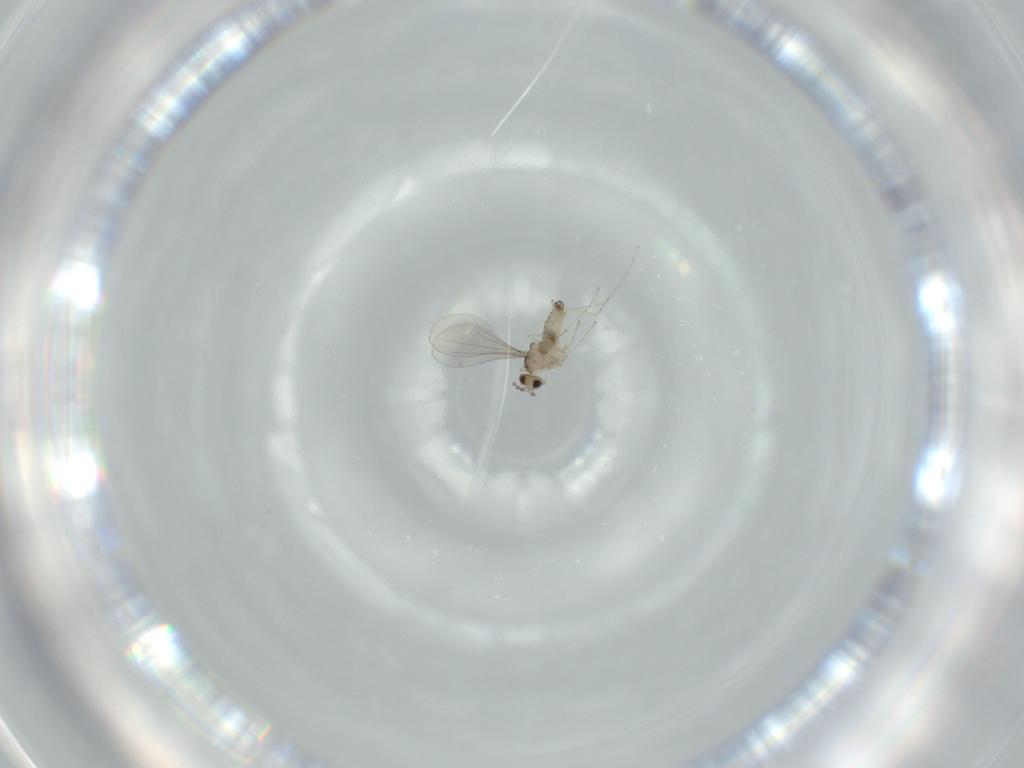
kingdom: Animalia
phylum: Arthropoda
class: Insecta
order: Diptera
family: Cecidomyiidae
